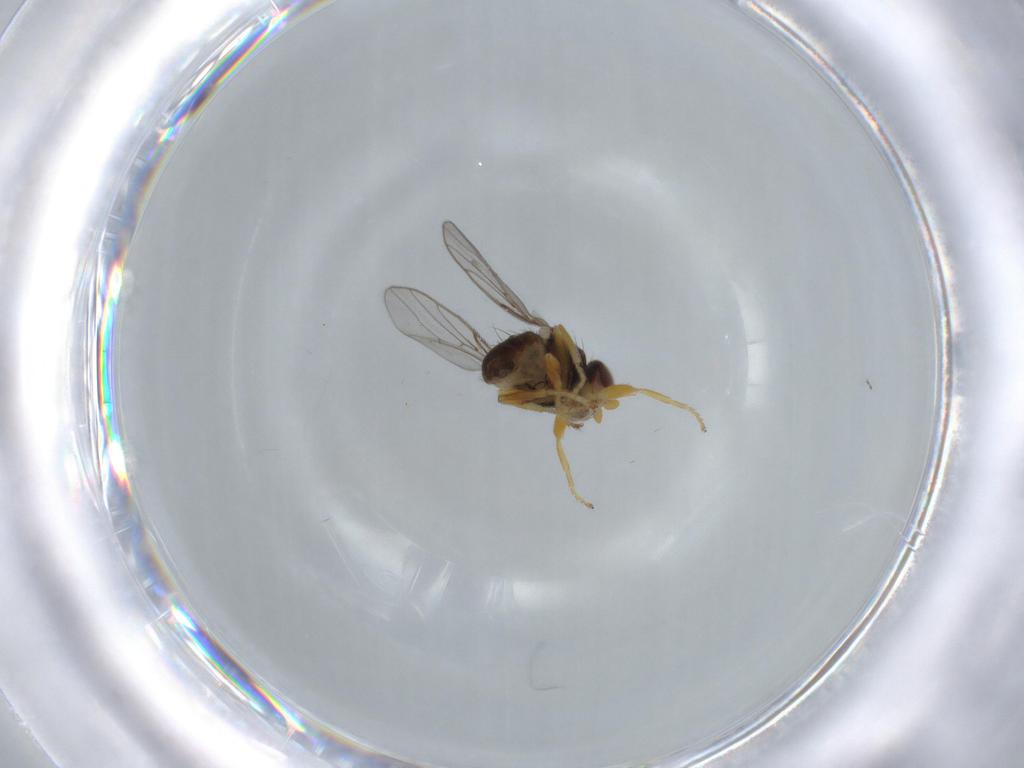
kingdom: Animalia
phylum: Arthropoda
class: Insecta
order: Diptera
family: Chloropidae
